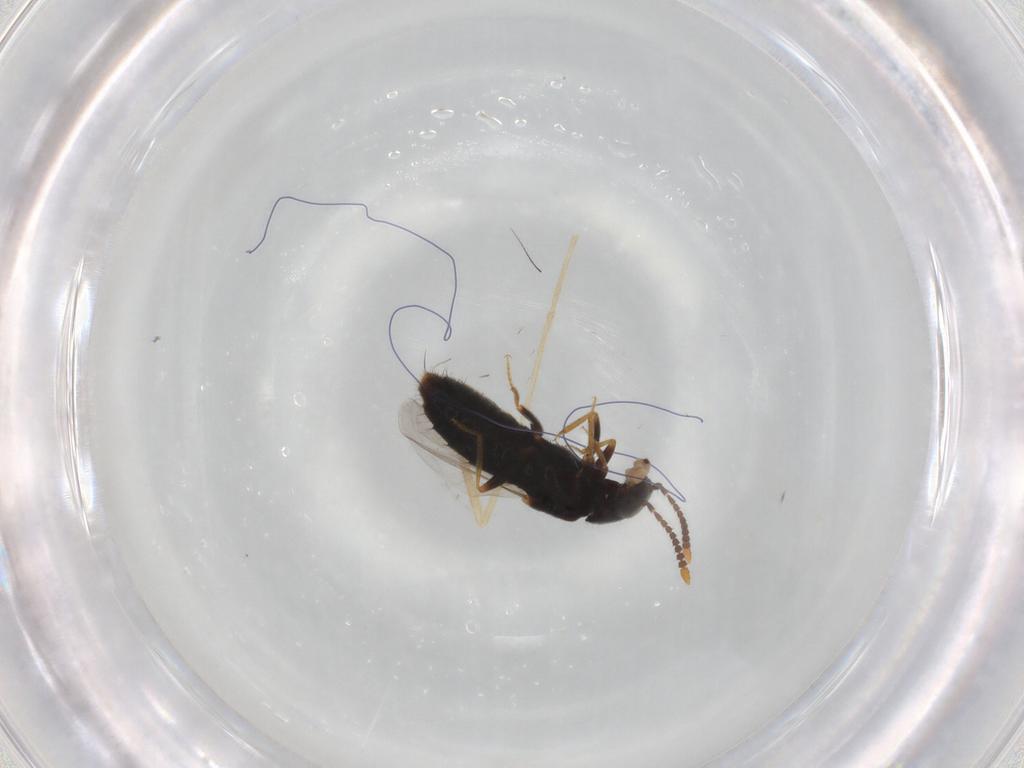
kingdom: Animalia
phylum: Arthropoda
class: Insecta
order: Coleoptera
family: Staphylinidae
